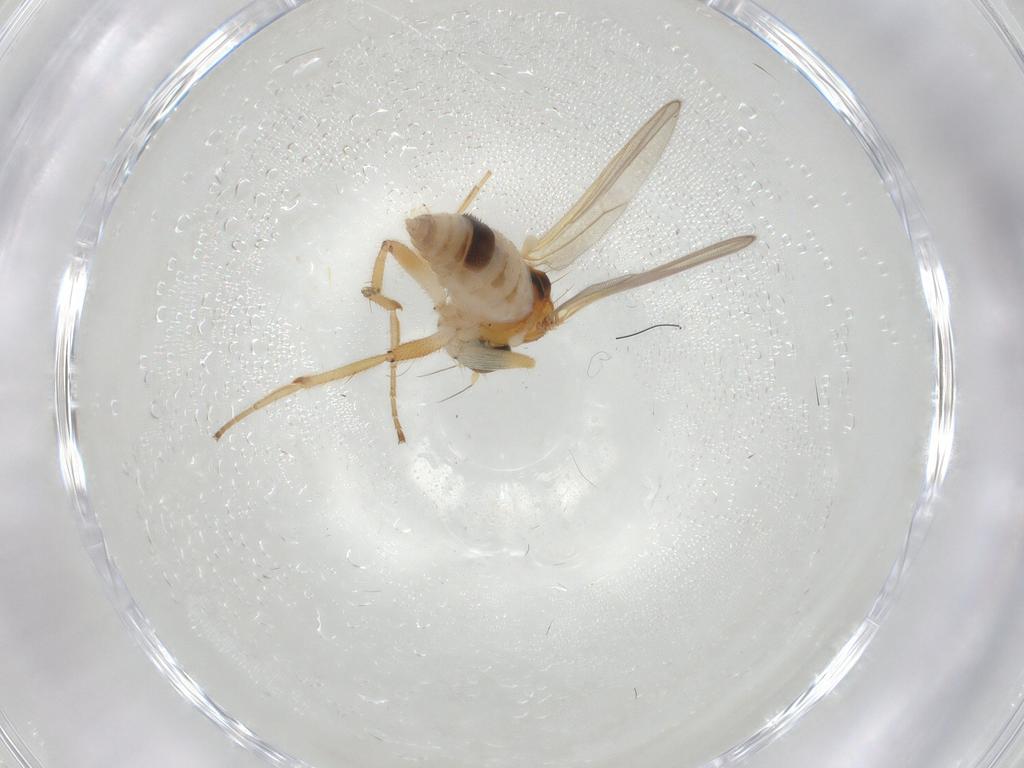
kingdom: Animalia
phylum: Arthropoda
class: Insecta
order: Diptera
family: Hybotidae
